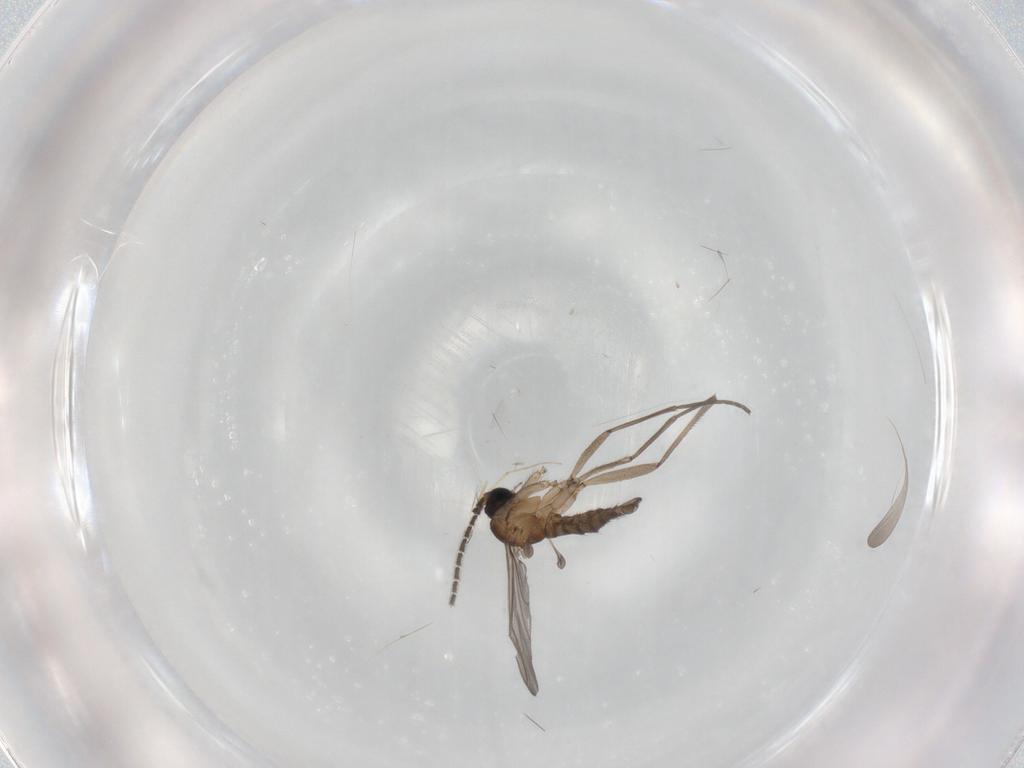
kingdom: Animalia
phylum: Arthropoda
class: Insecta
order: Diptera
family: Sciaridae
